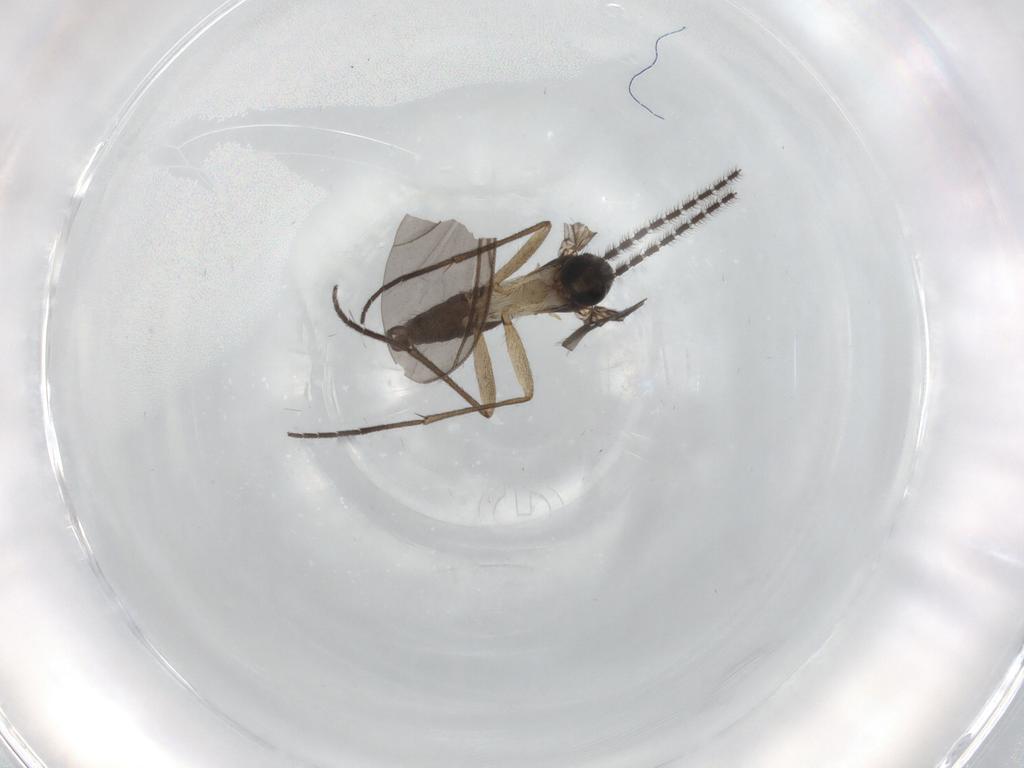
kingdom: Animalia
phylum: Arthropoda
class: Insecta
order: Diptera
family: Sciaridae
